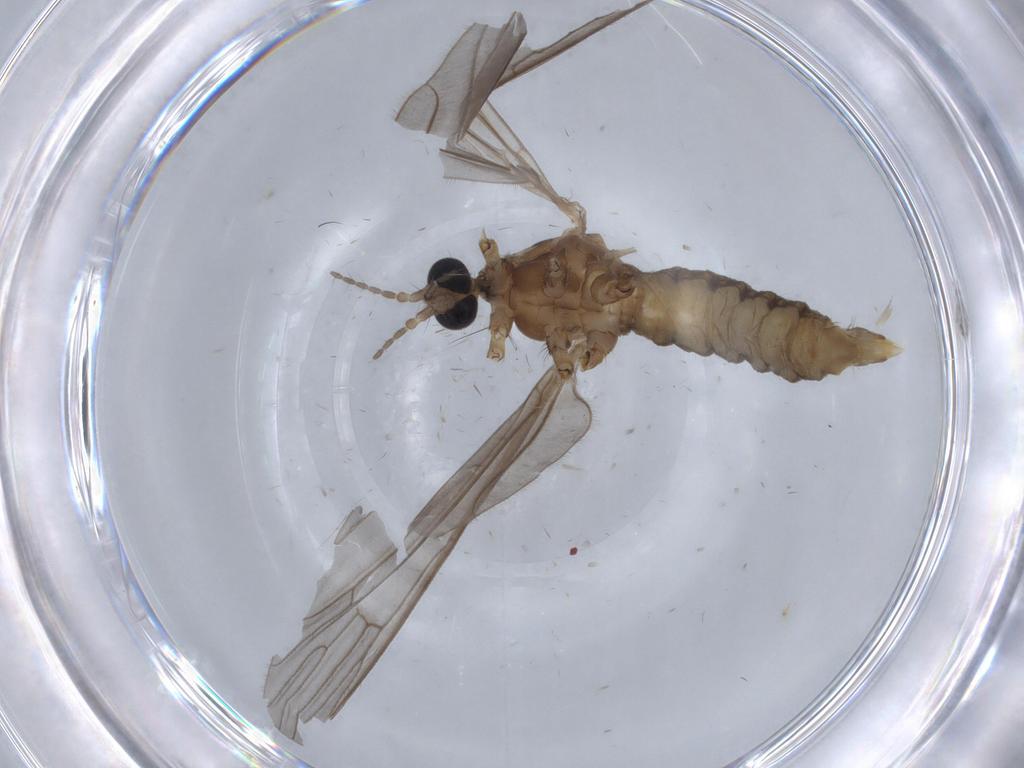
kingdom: Animalia
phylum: Arthropoda
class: Insecta
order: Diptera
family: Limoniidae
